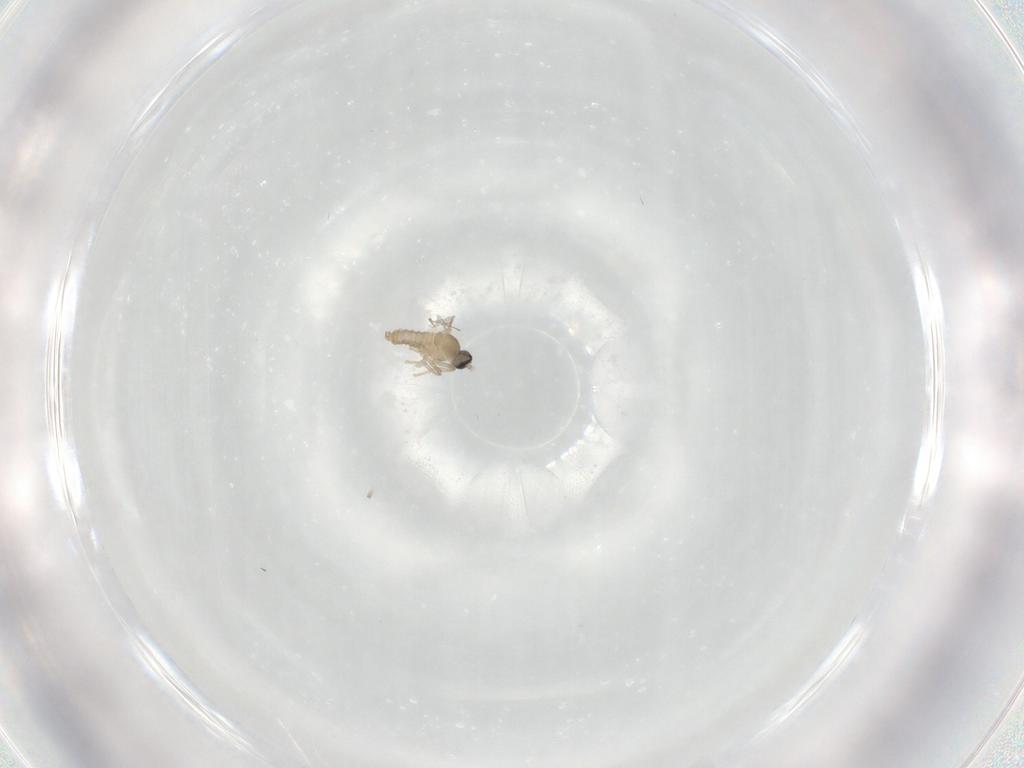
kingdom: Animalia
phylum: Arthropoda
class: Insecta
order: Diptera
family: Cecidomyiidae
